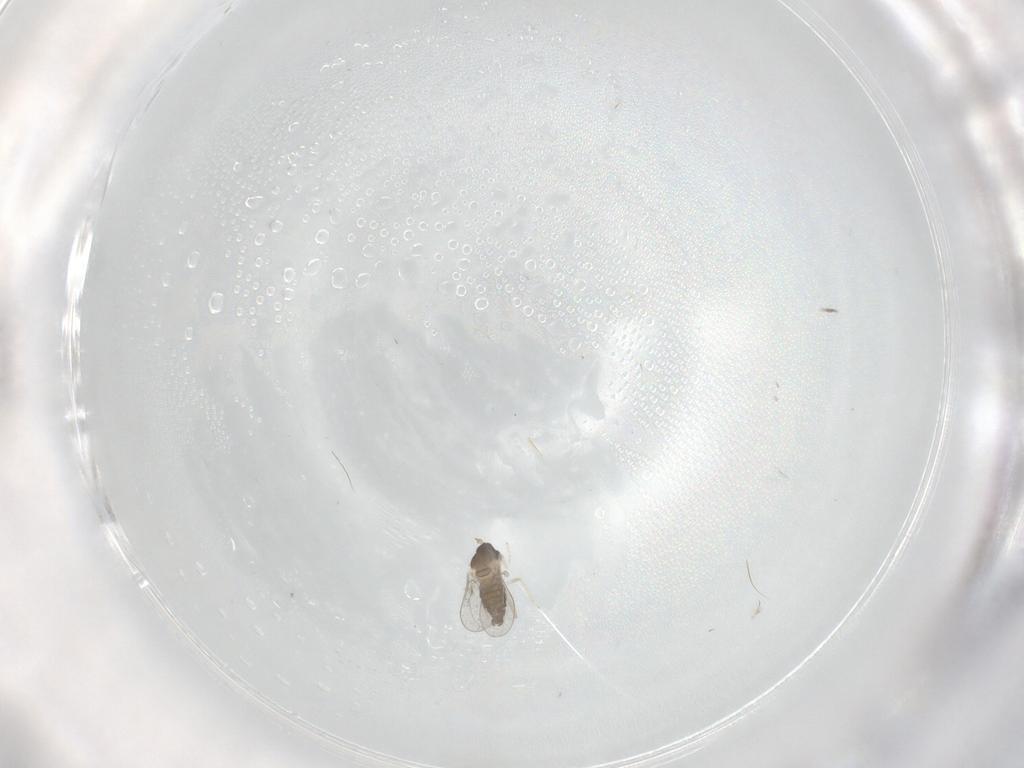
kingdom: Animalia
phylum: Arthropoda
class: Insecta
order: Diptera
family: Cecidomyiidae
